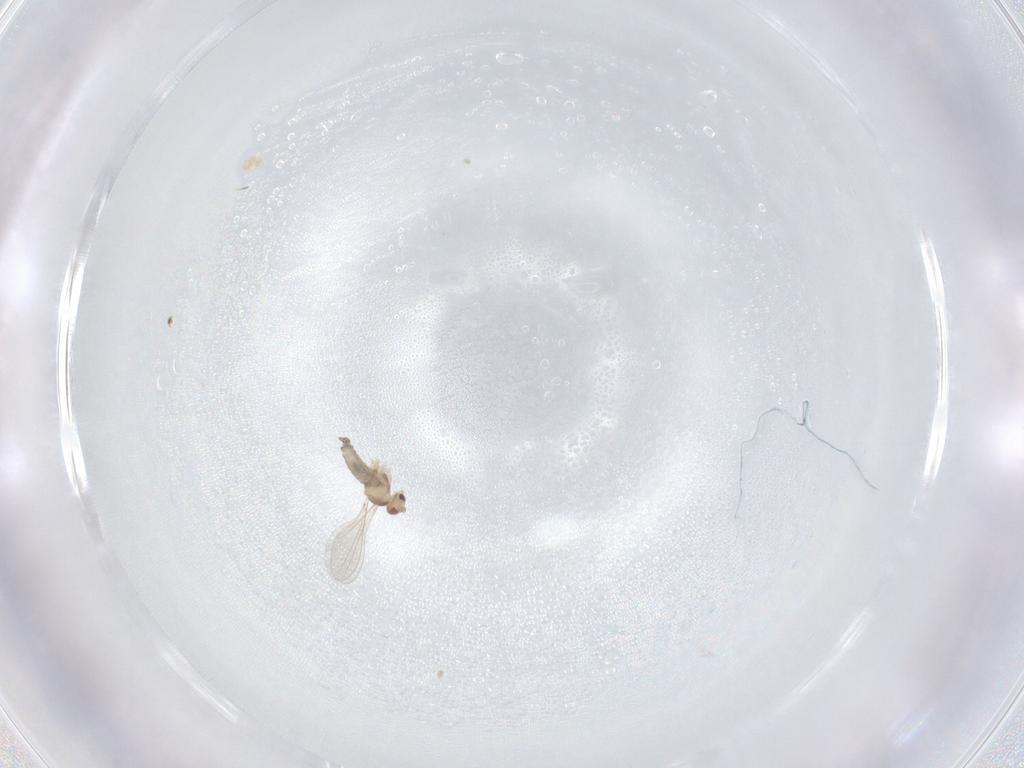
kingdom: Animalia
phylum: Arthropoda
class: Insecta
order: Diptera
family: Cecidomyiidae
